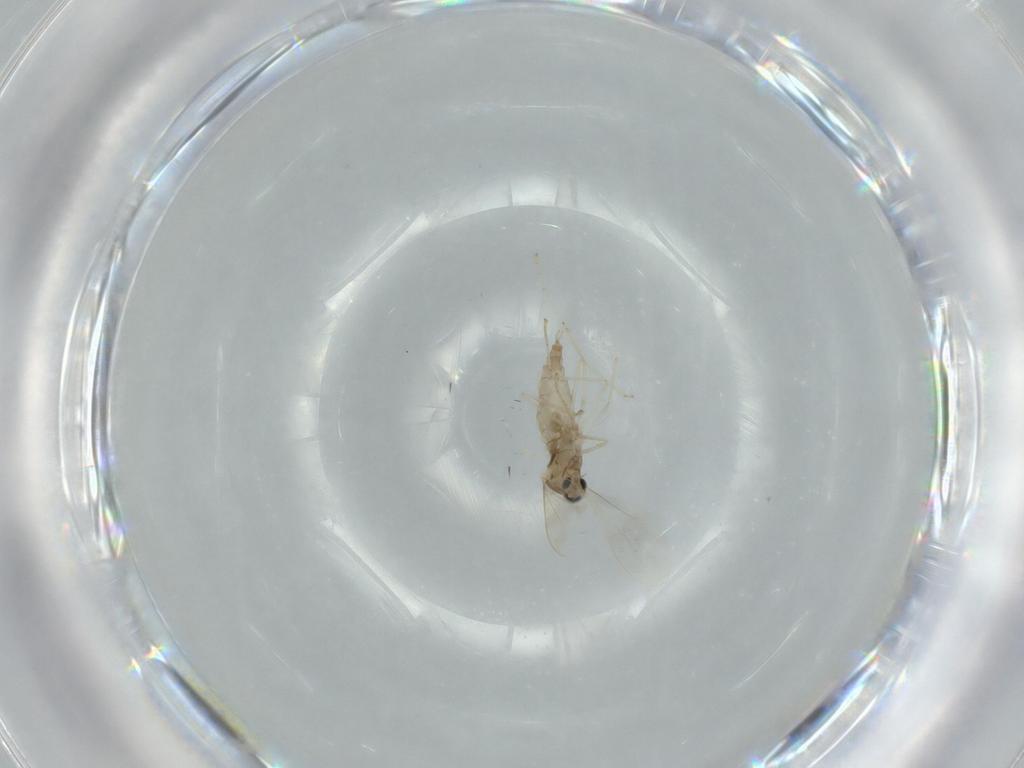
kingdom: Animalia
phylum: Arthropoda
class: Insecta
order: Diptera
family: Cecidomyiidae
